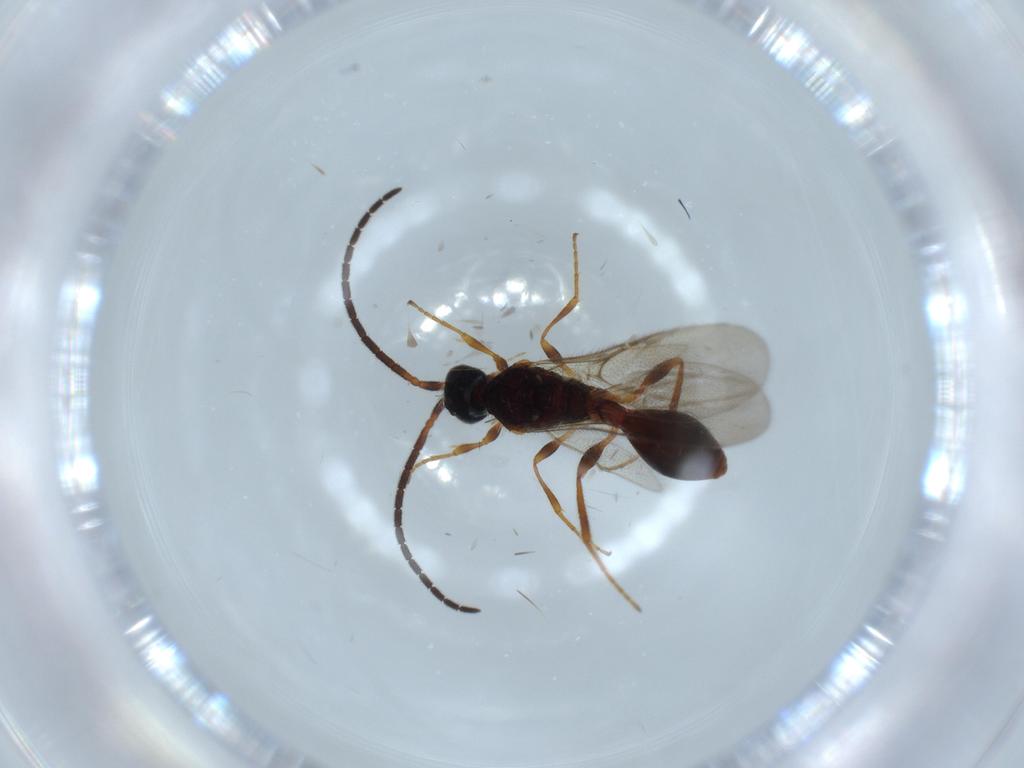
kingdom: Animalia
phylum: Arthropoda
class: Insecta
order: Hymenoptera
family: Diapriidae
